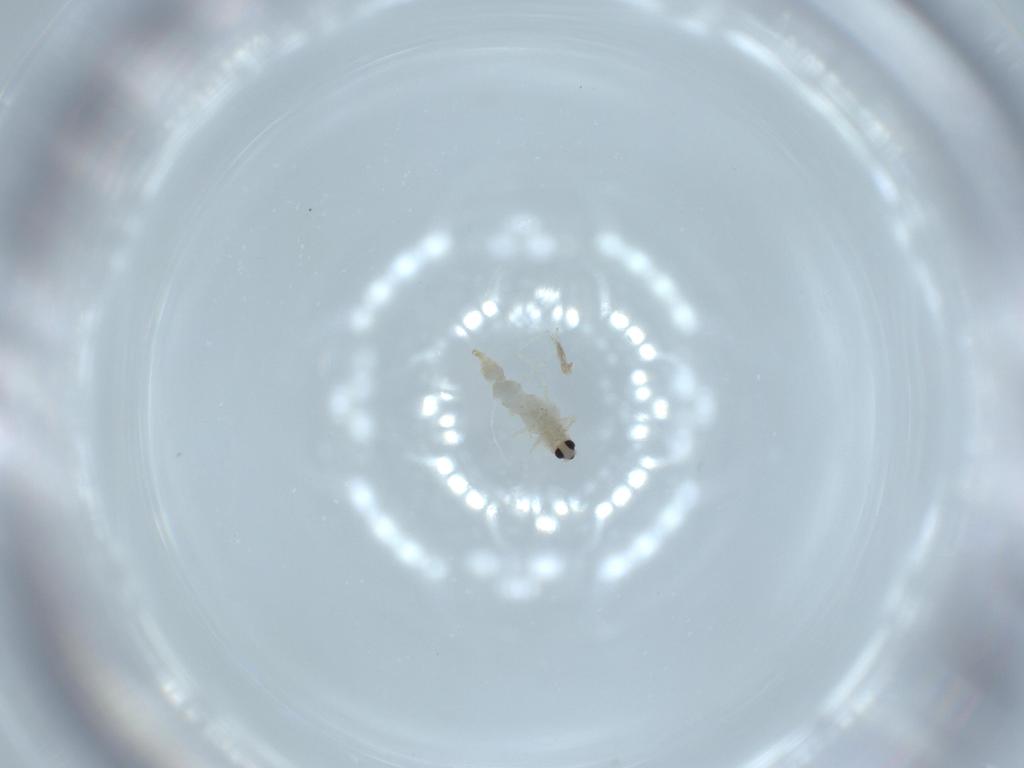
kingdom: Animalia
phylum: Arthropoda
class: Insecta
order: Diptera
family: Cecidomyiidae
